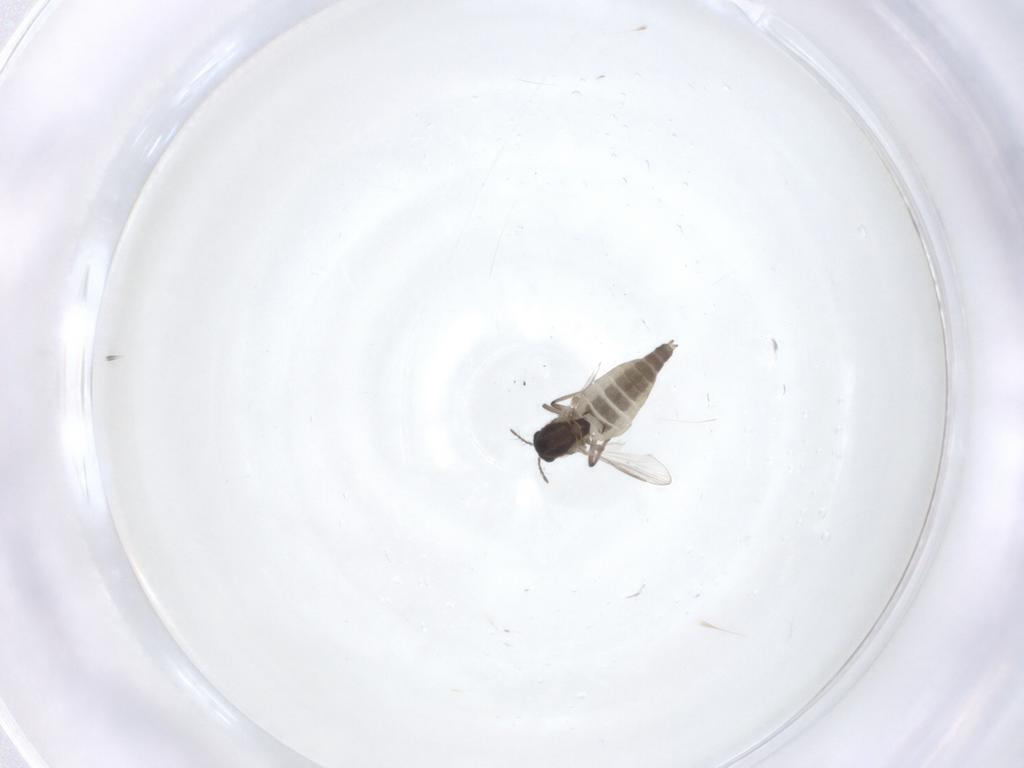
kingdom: Animalia
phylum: Arthropoda
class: Insecta
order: Diptera
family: Chironomidae
